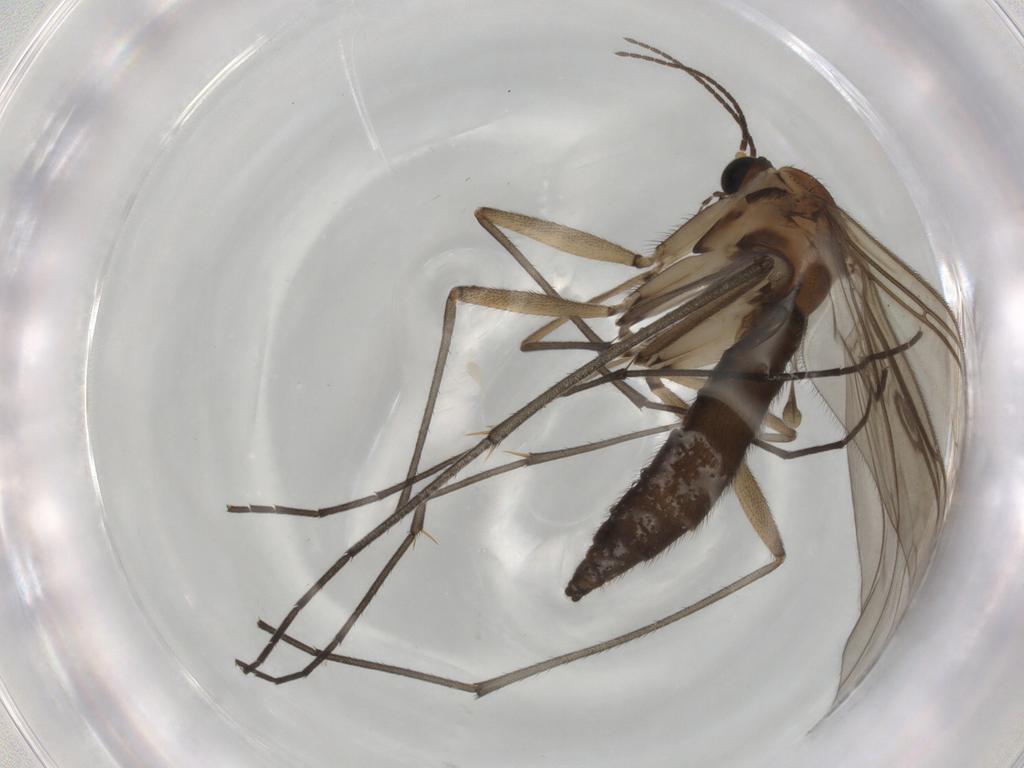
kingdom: Animalia
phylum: Arthropoda
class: Insecta
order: Diptera
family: Sciaridae
